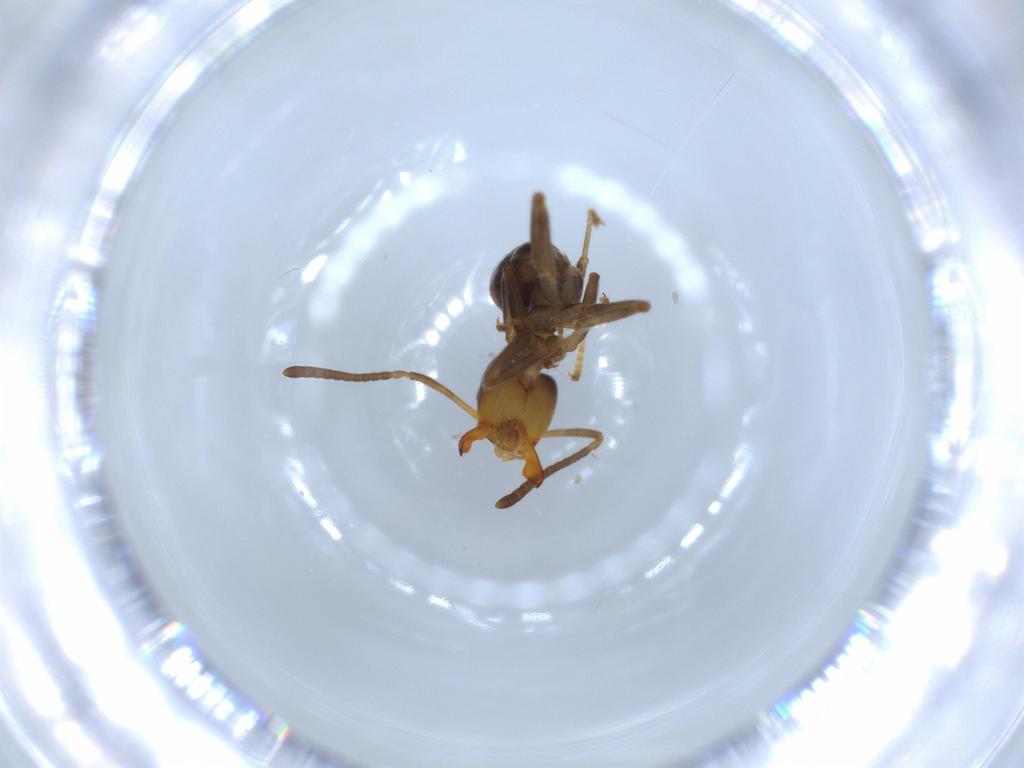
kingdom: Animalia
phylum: Arthropoda
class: Insecta
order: Hymenoptera
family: Formicidae
